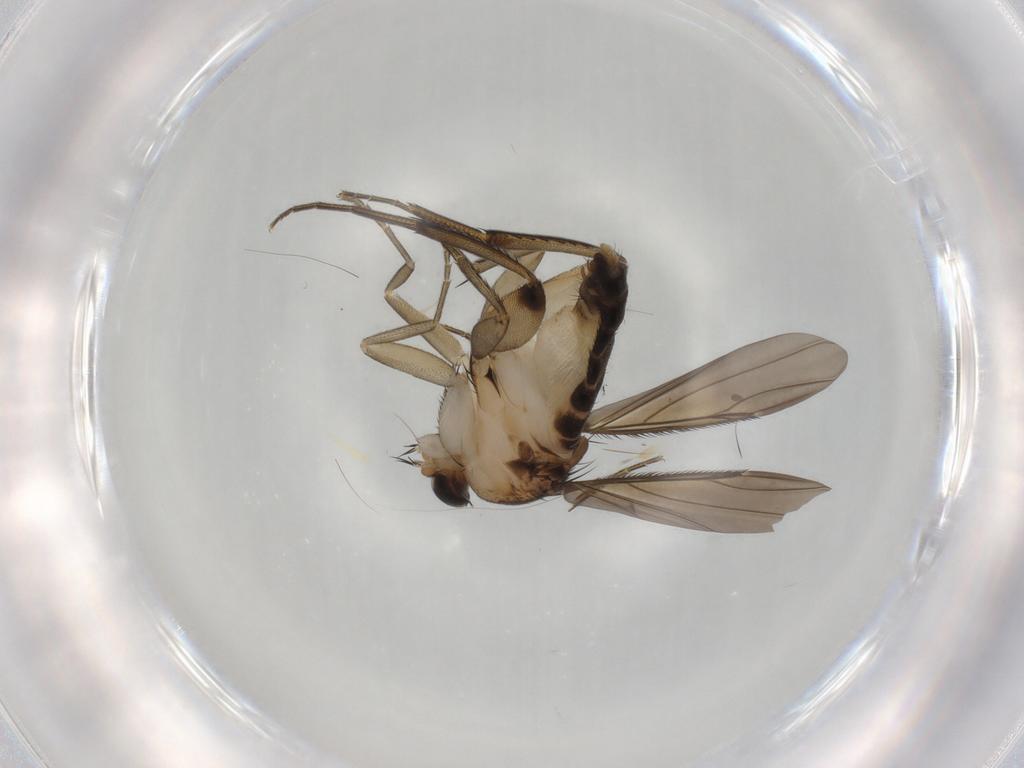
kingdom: Animalia
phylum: Arthropoda
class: Insecta
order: Diptera
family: Phoridae
